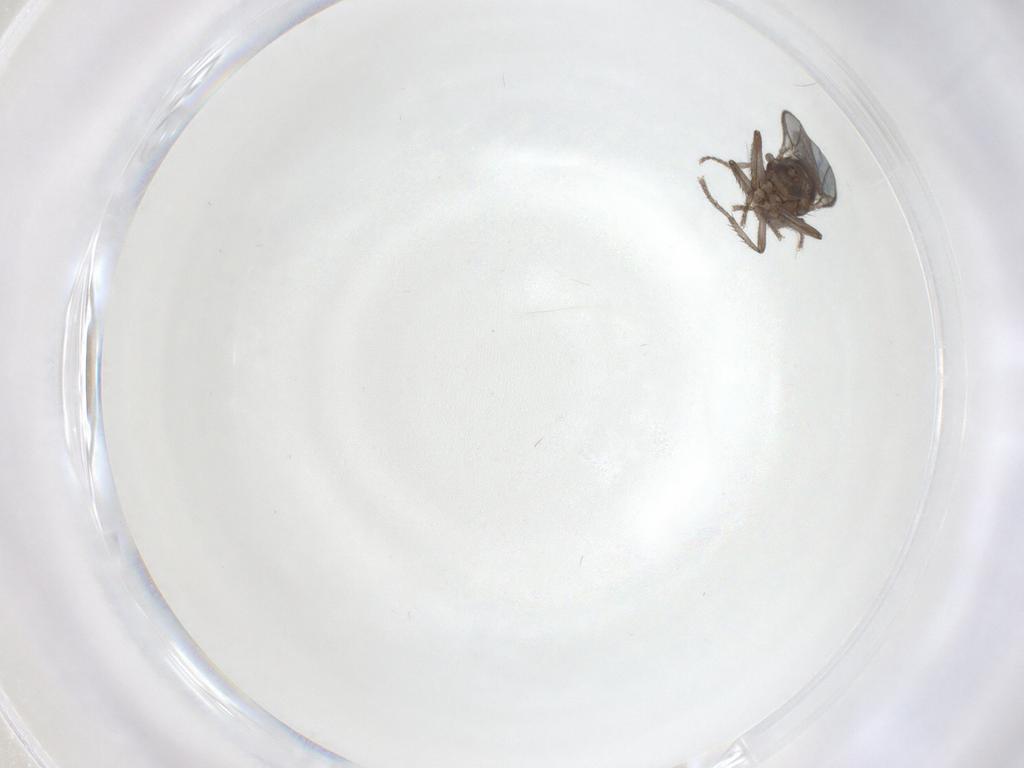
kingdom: Animalia
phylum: Arthropoda
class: Insecta
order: Diptera
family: Sphaeroceridae
